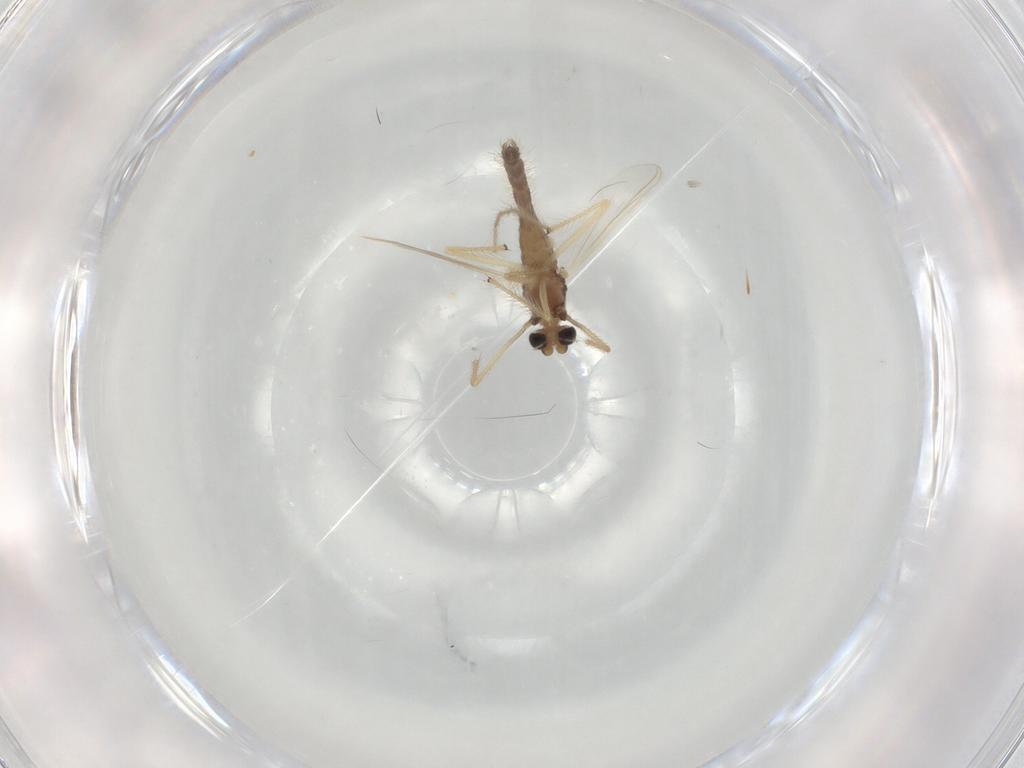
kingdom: Animalia
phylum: Arthropoda
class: Insecta
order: Diptera
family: Chironomidae
